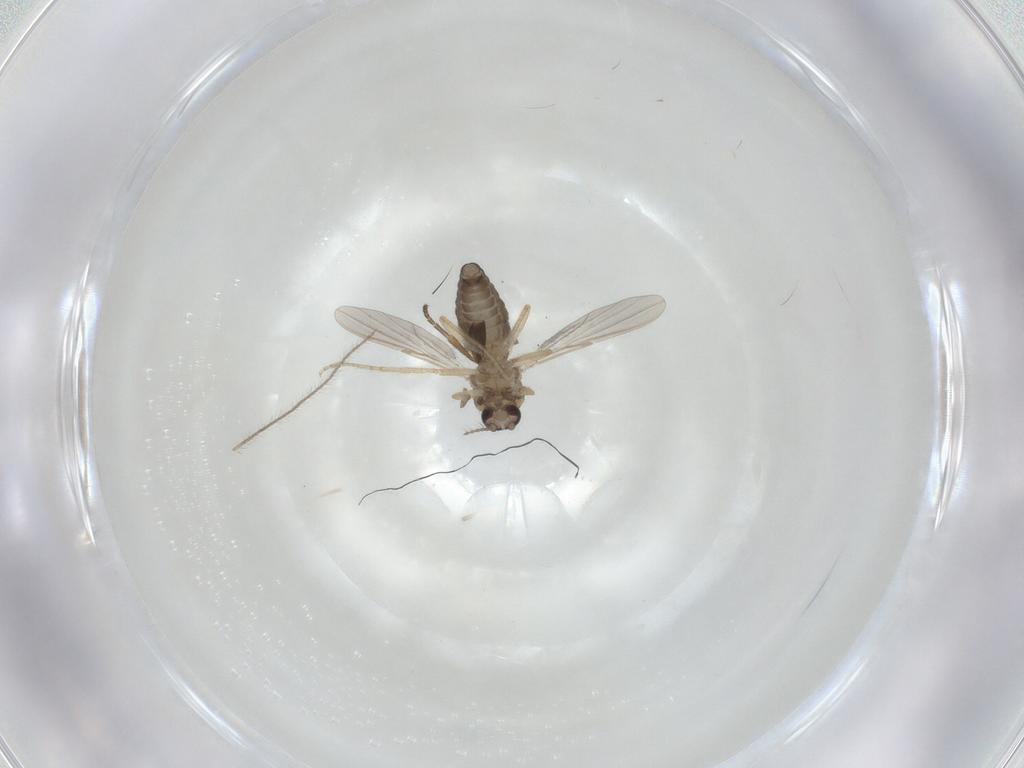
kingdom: Animalia
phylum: Arthropoda
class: Insecta
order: Diptera
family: Ceratopogonidae
